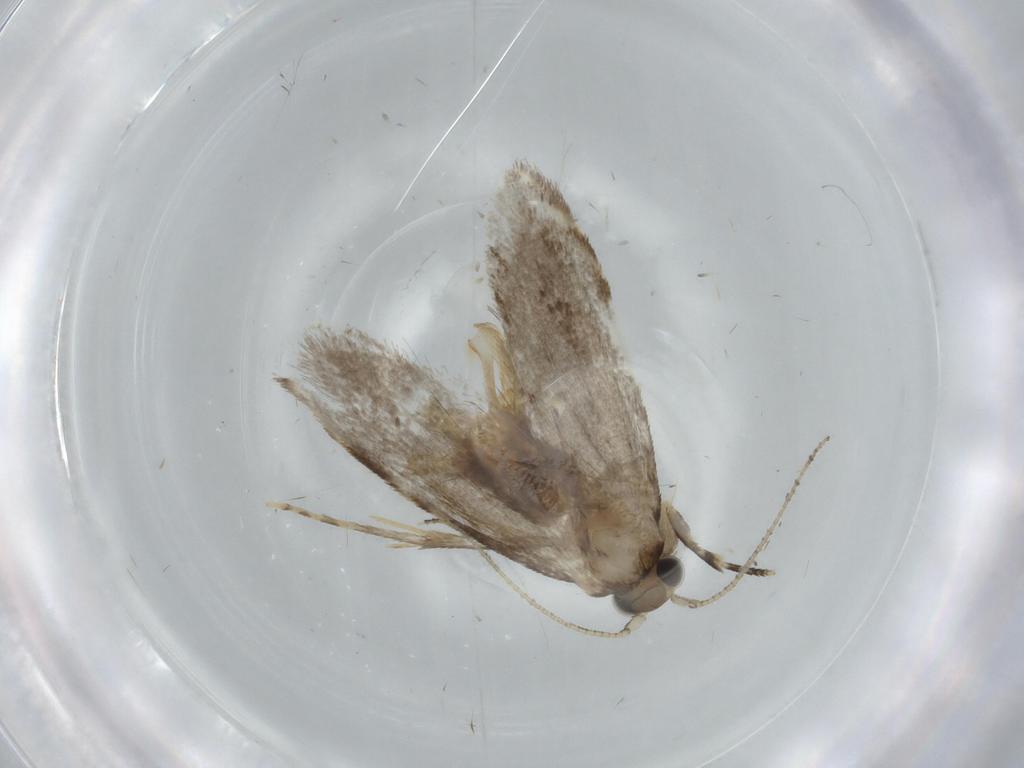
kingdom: Animalia
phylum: Arthropoda
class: Insecta
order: Lepidoptera
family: Tineidae
